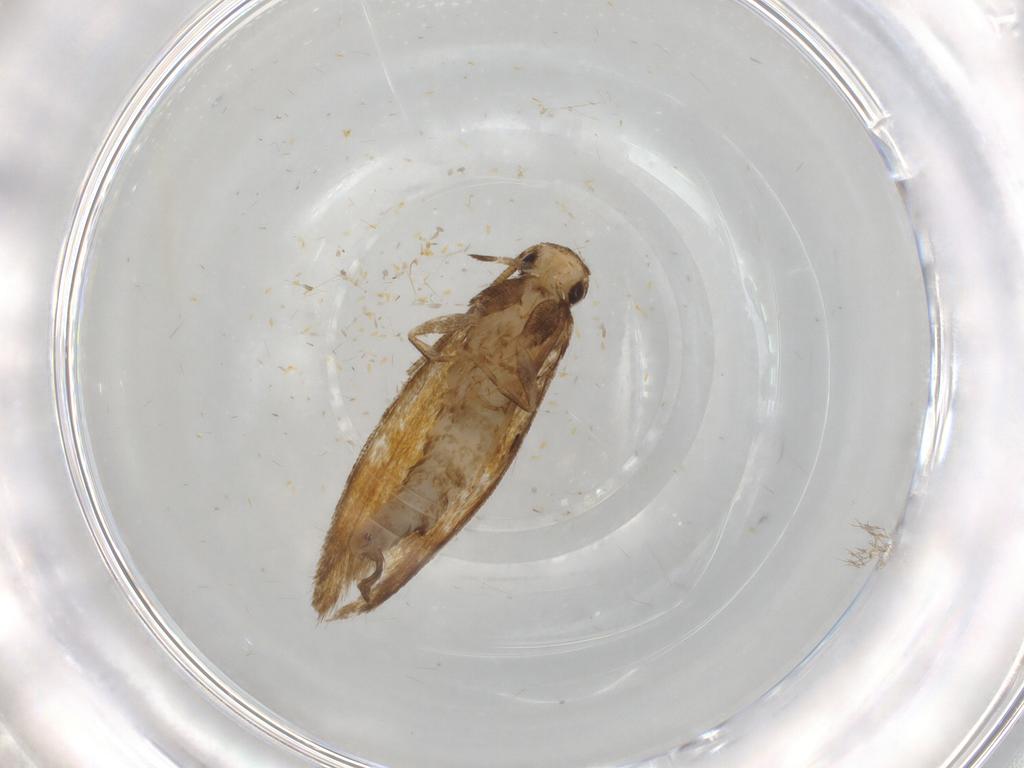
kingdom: Animalia
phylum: Arthropoda
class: Insecta
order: Lepidoptera
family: Tineidae
